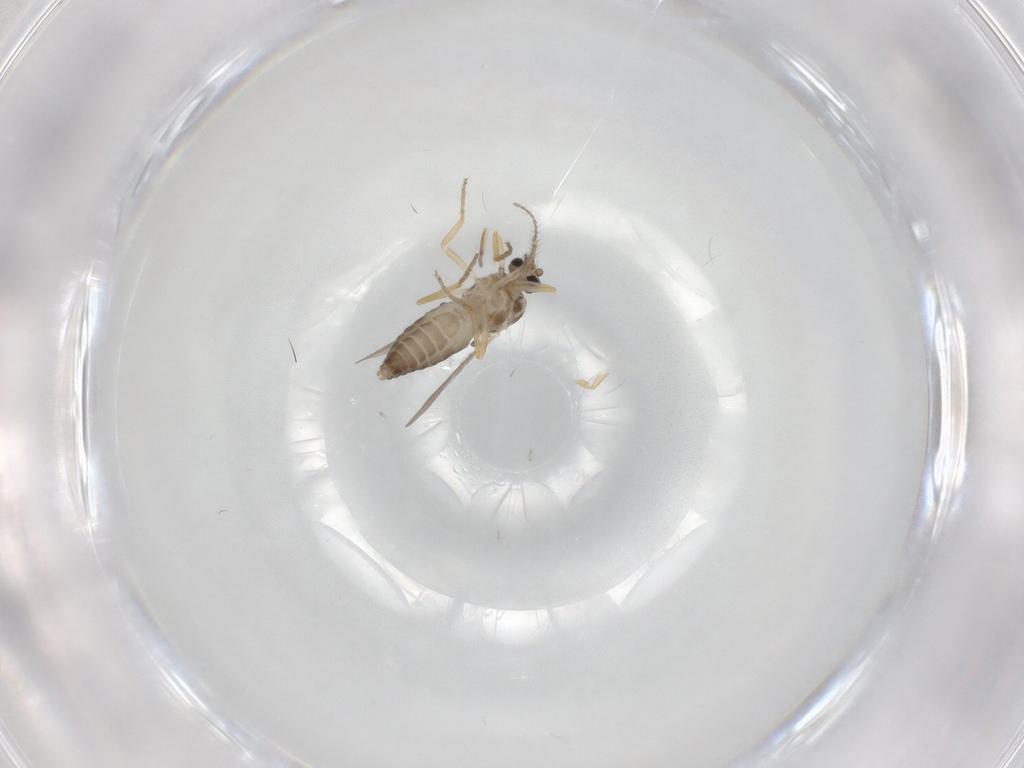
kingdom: Animalia
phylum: Arthropoda
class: Insecta
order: Diptera
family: Ceratopogonidae
